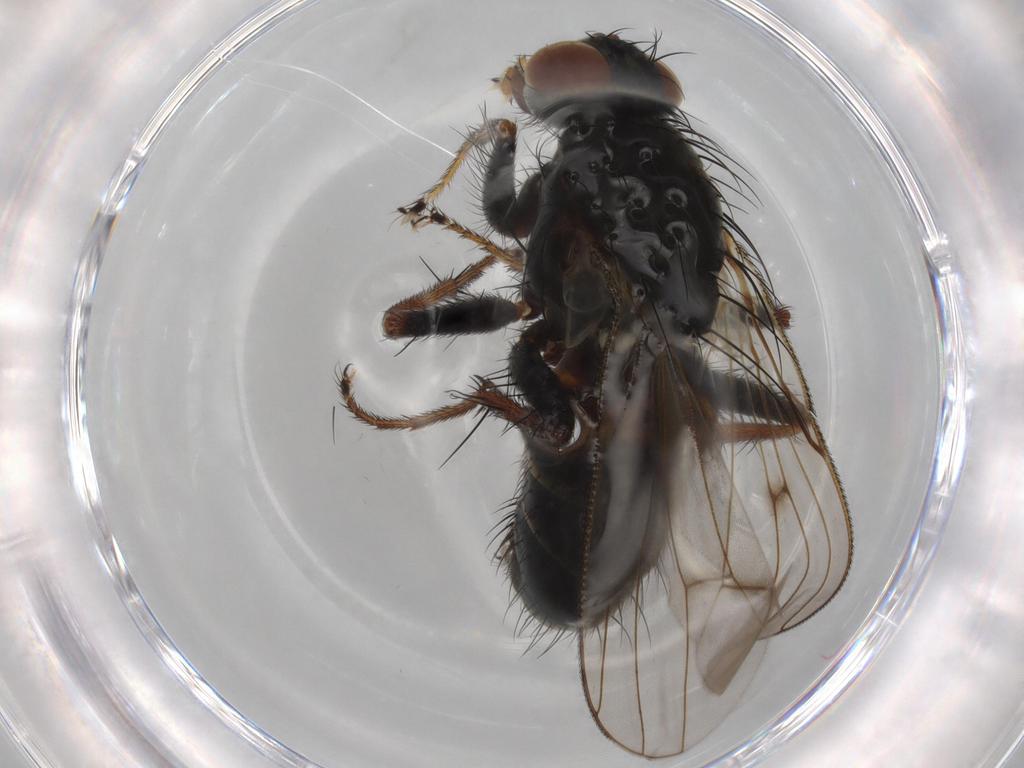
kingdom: Animalia
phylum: Arthropoda
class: Insecta
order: Diptera
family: Muscidae
